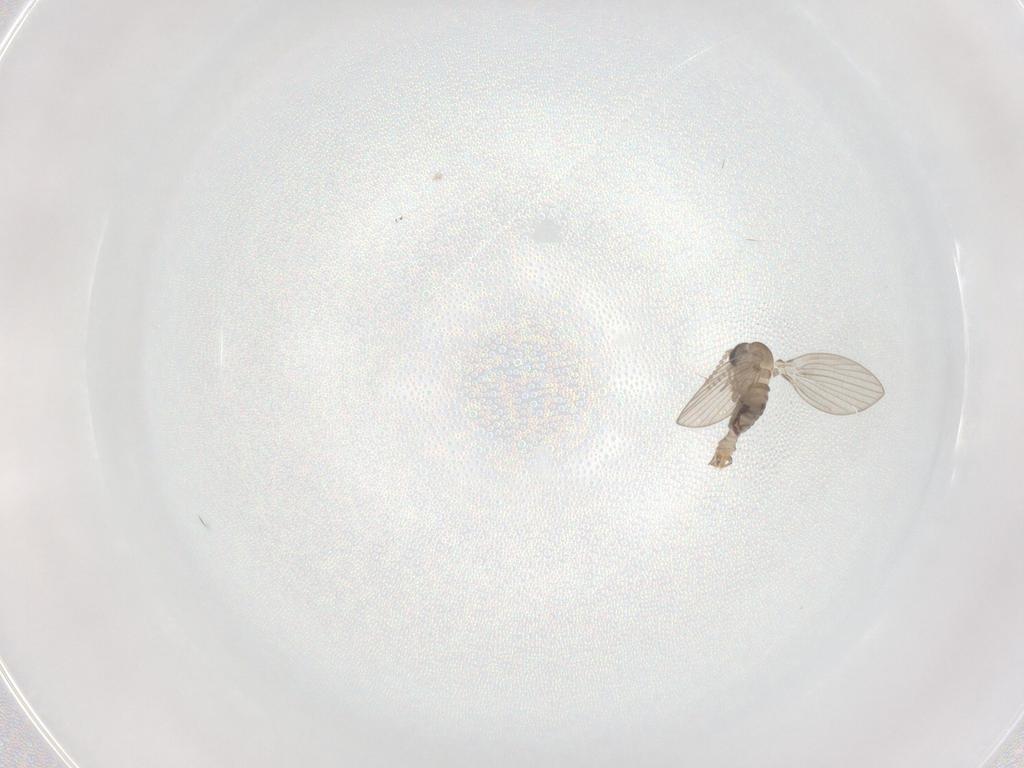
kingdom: Animalia
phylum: Arthropoda
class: Insecta
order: Diptera
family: Psychodidae
